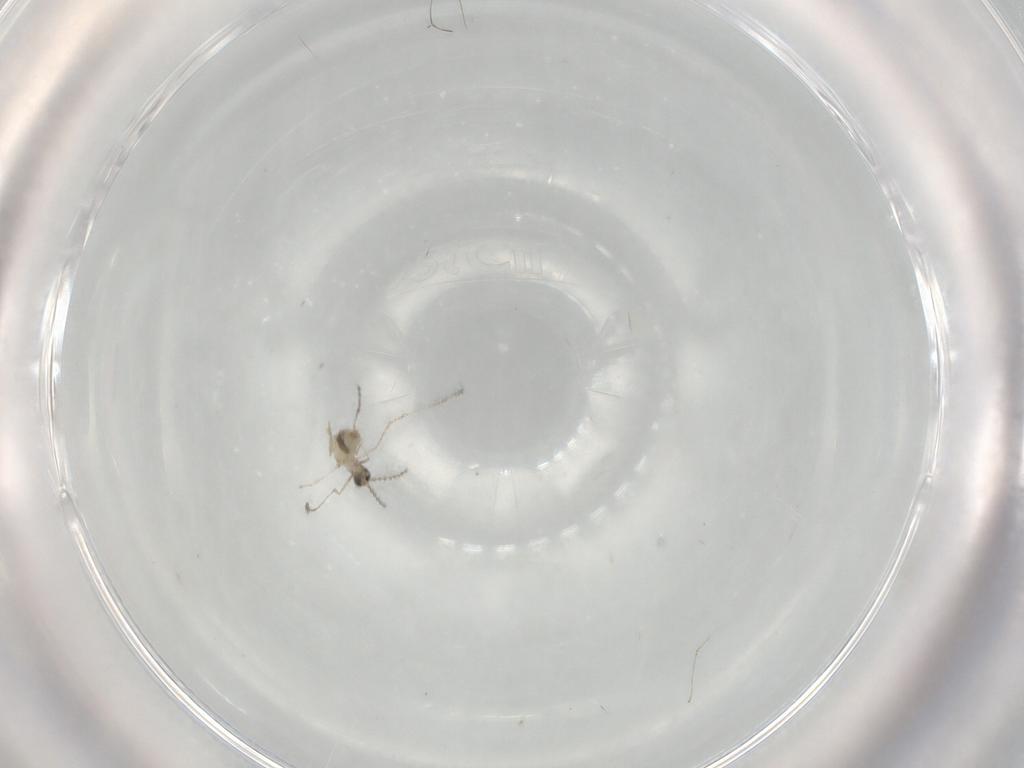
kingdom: Animalia
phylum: Arthropoda
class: Insecta
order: Diptera
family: Cecidomyiidae
